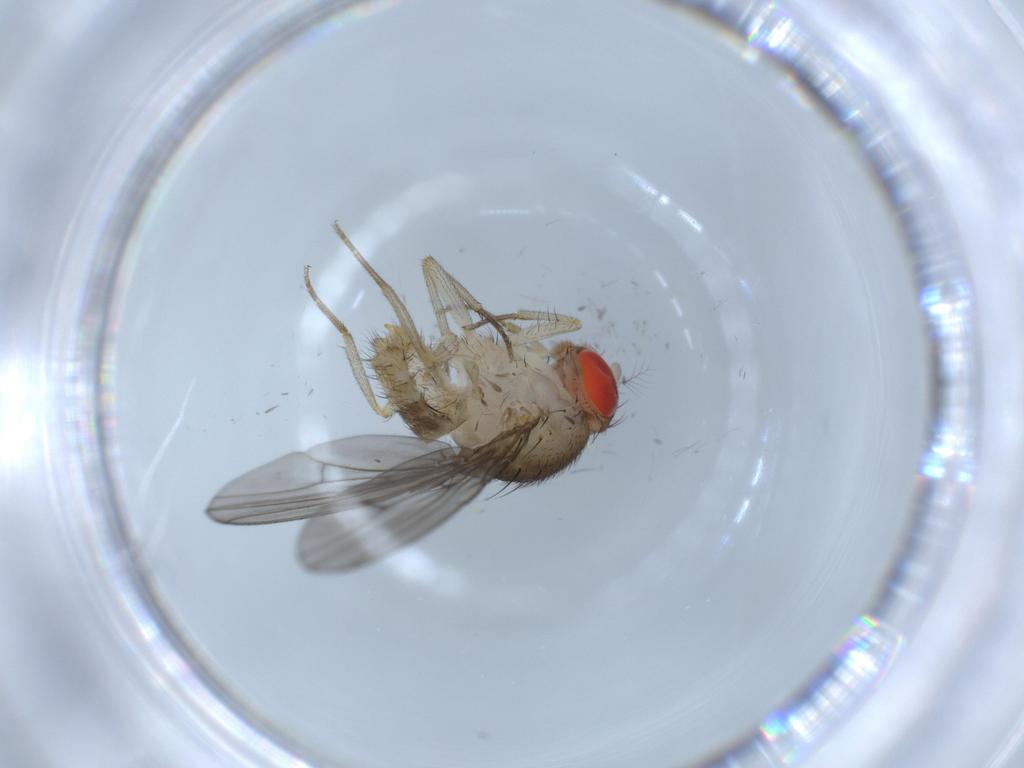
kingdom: Animalia
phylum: Arthropoda
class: Insecta
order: Diptera
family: Drosophilidae
